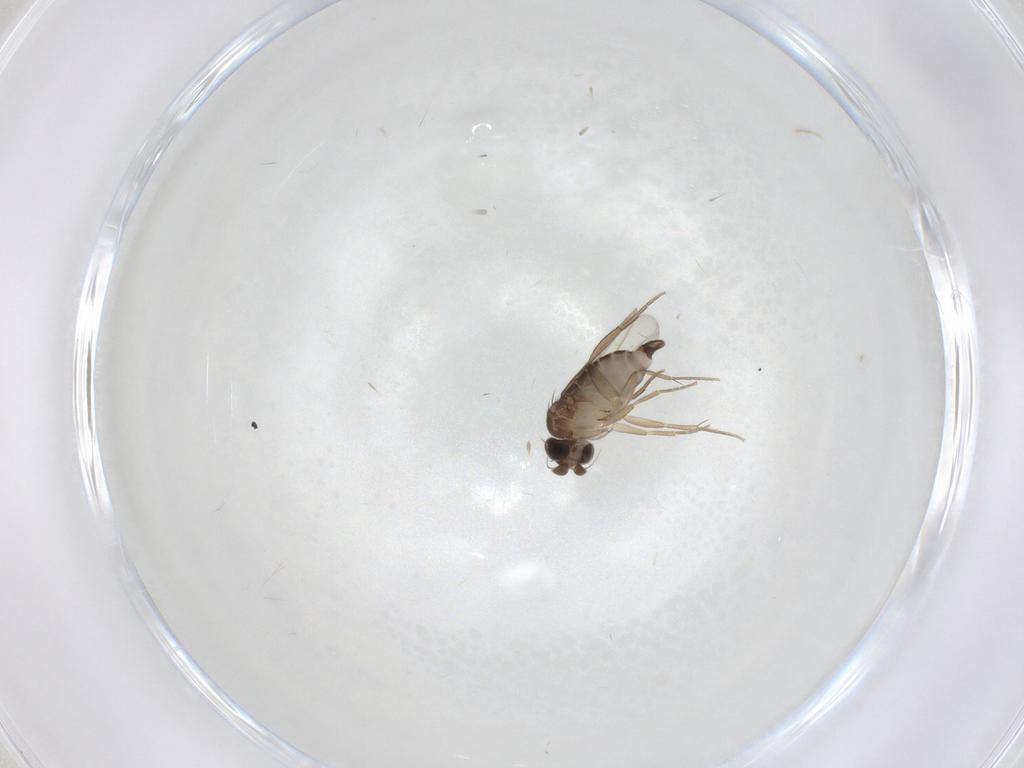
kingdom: Animalia
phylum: Arthropoda
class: Insecta
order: Diptera
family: Phoridae
